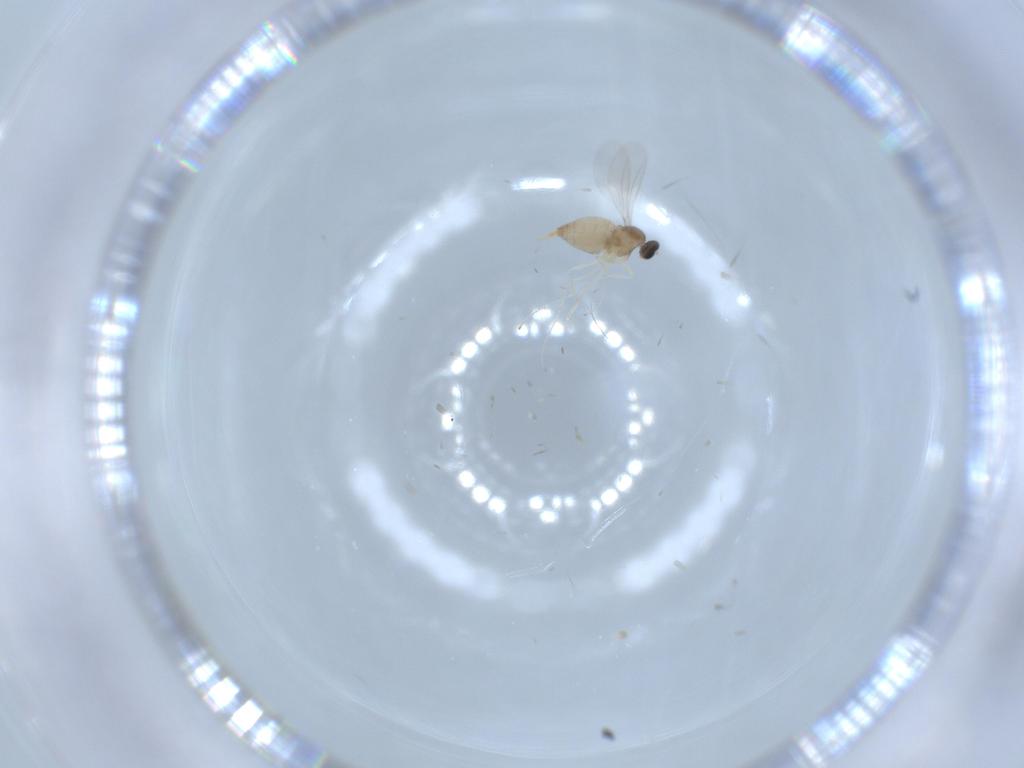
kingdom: Animalia
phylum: Arthropoda
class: Insecta
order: Diptera
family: Cecidomyiidae
